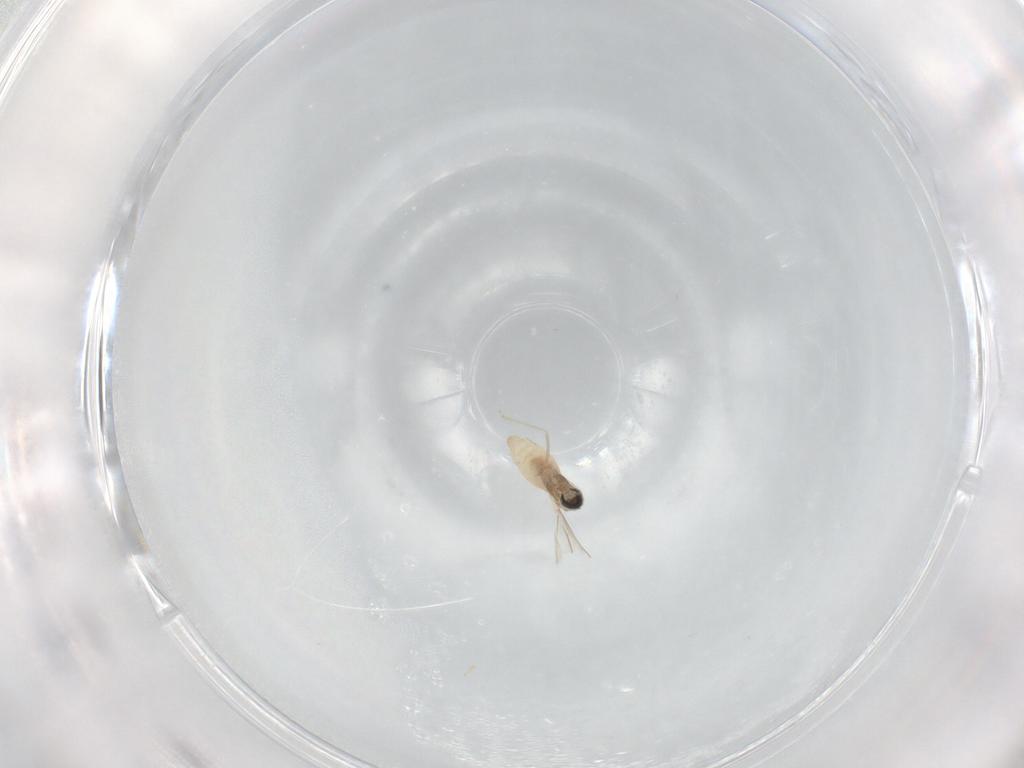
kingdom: Animalia
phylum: Arthropoda
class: Insecta
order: Diptera
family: Cecidomyiidae
